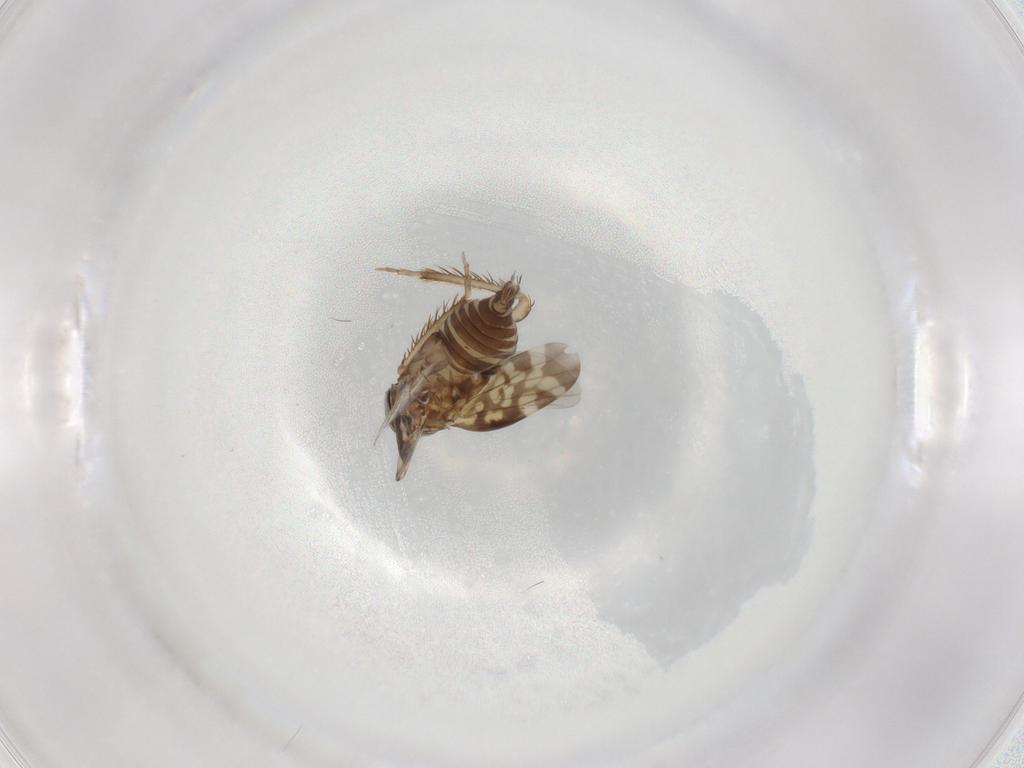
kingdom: Animalia
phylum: Arthropoda
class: Insecta
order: Hemiptera
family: Cicadellidae
